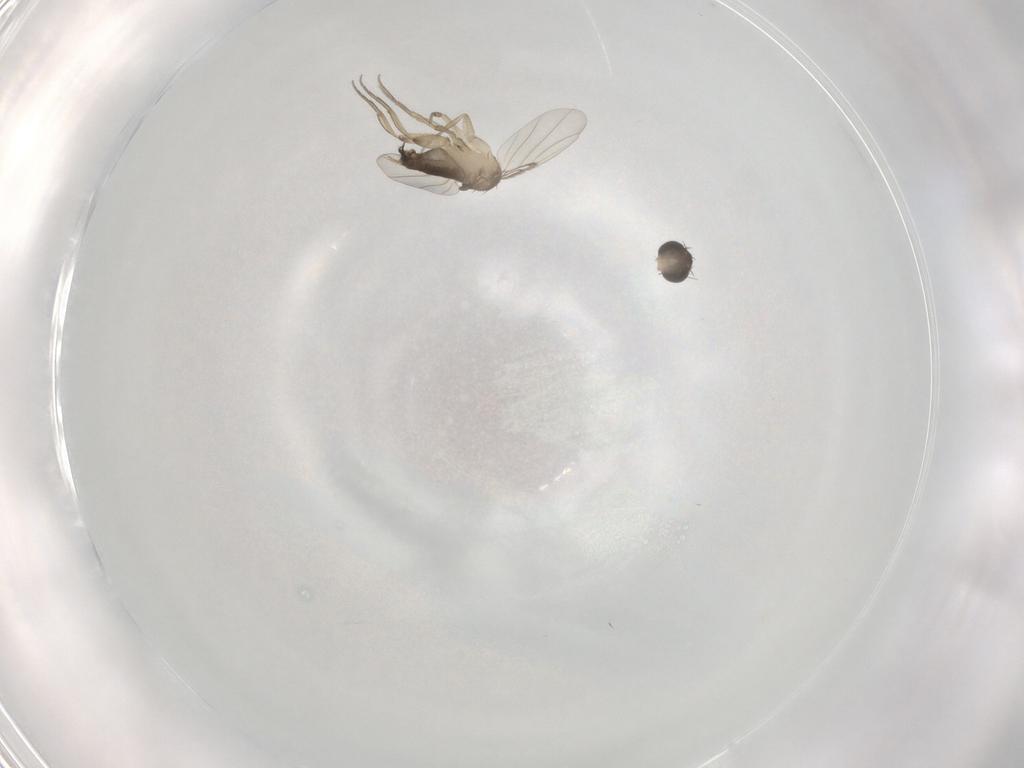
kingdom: Animalia
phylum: Arthropoda
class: Insecta
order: Diptera
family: Phoridae
